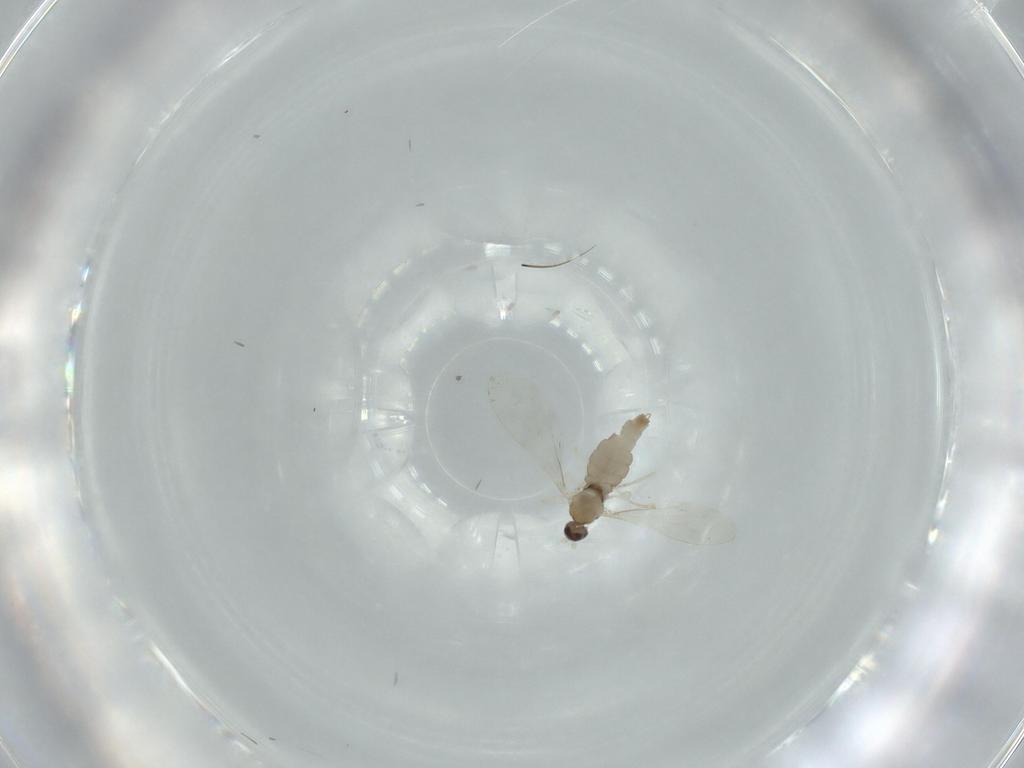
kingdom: Animalia
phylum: Arthropoda
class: Insecta
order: Diptera
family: Cecidomyiidae
